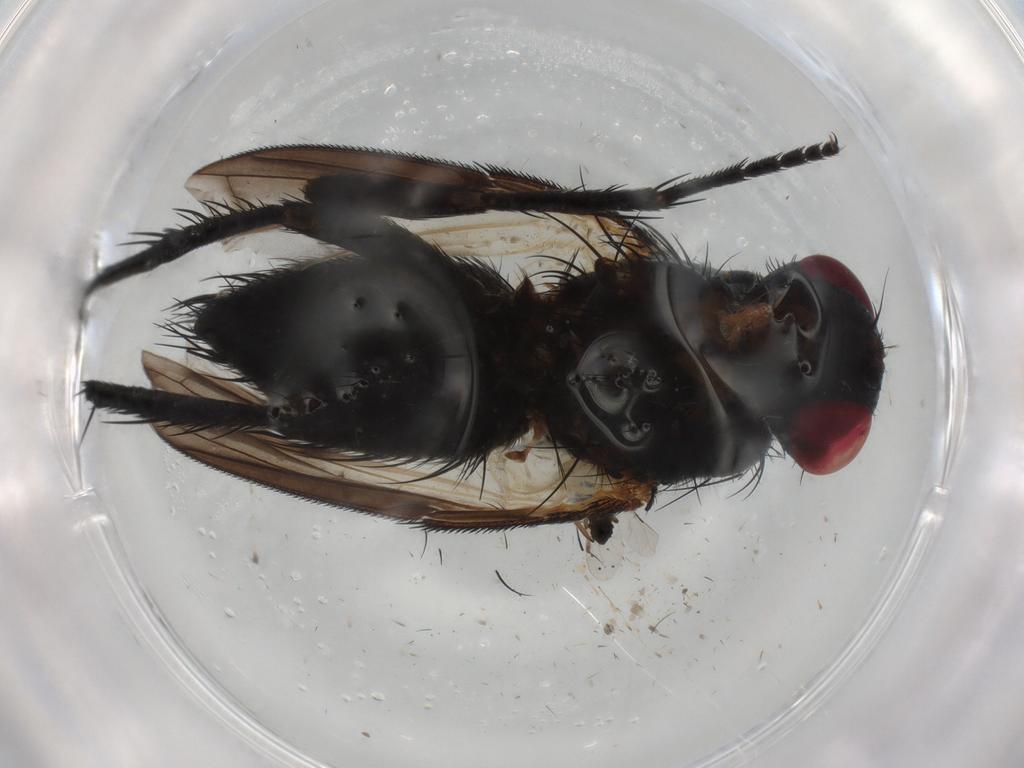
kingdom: Animalia
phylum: Arthropoda
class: Insecta
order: Diptera
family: Tachinidae
